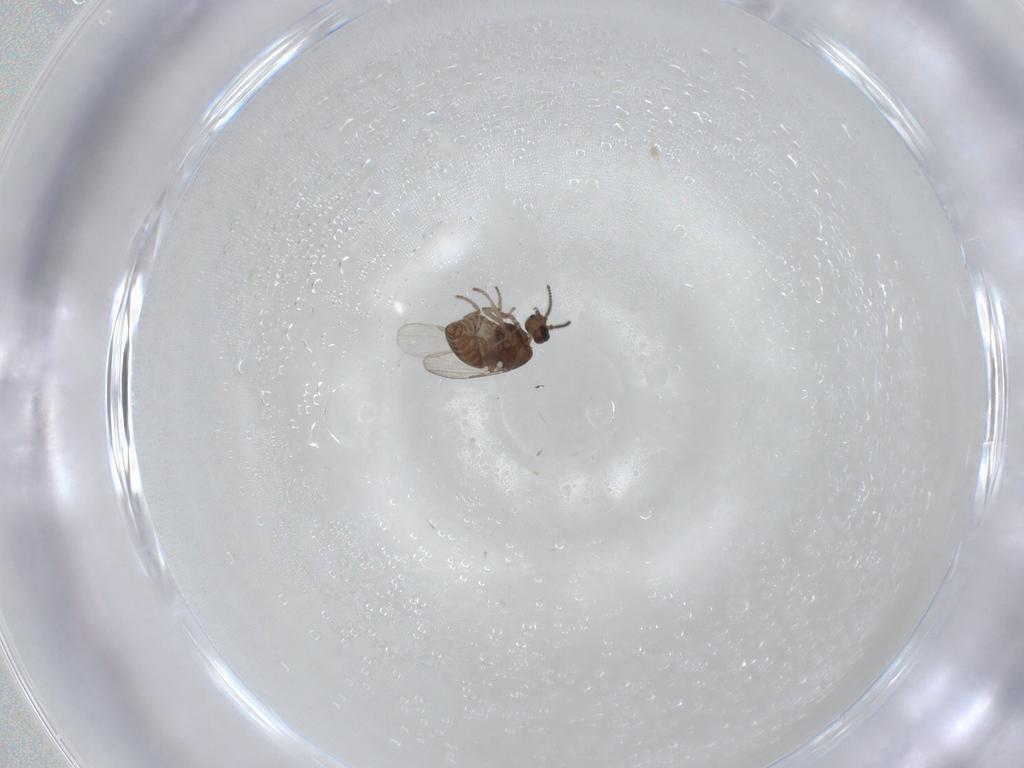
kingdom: Animalia
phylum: Arthropoda
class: Insecta
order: Diptera
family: Ceratopogonidae
